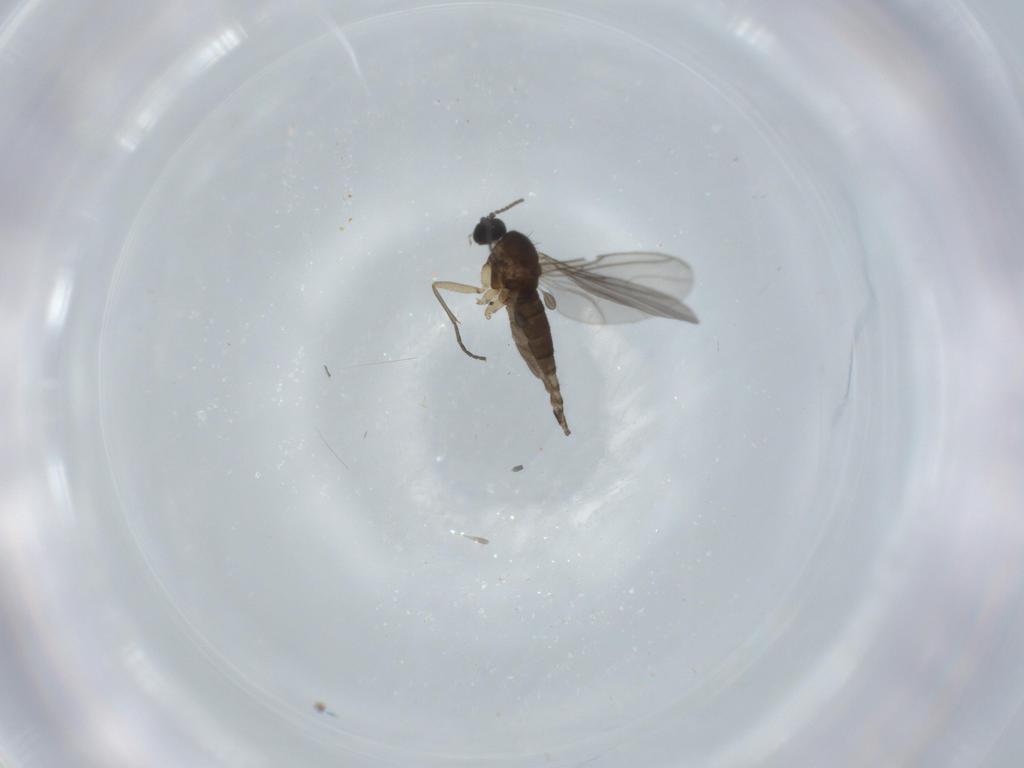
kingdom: Animalia
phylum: Arthropoda
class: Insecta
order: Diptera
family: Sciaridae
